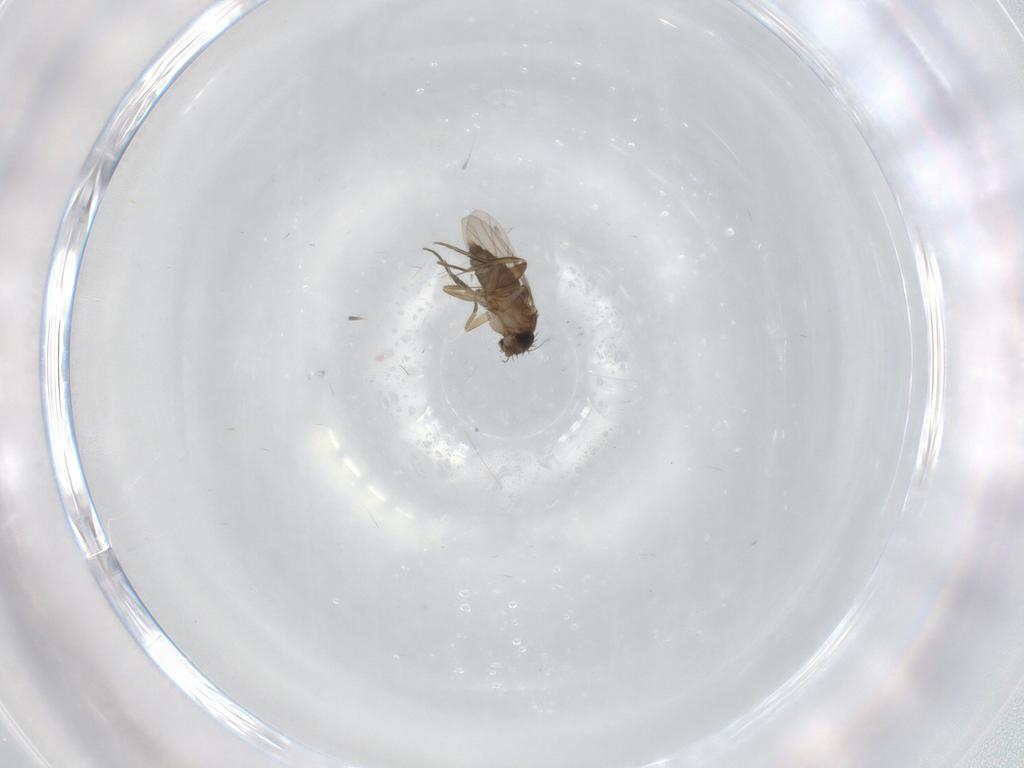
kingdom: Animalia
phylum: Arthropoda
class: Insecta
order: Diptera
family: Phoridae
